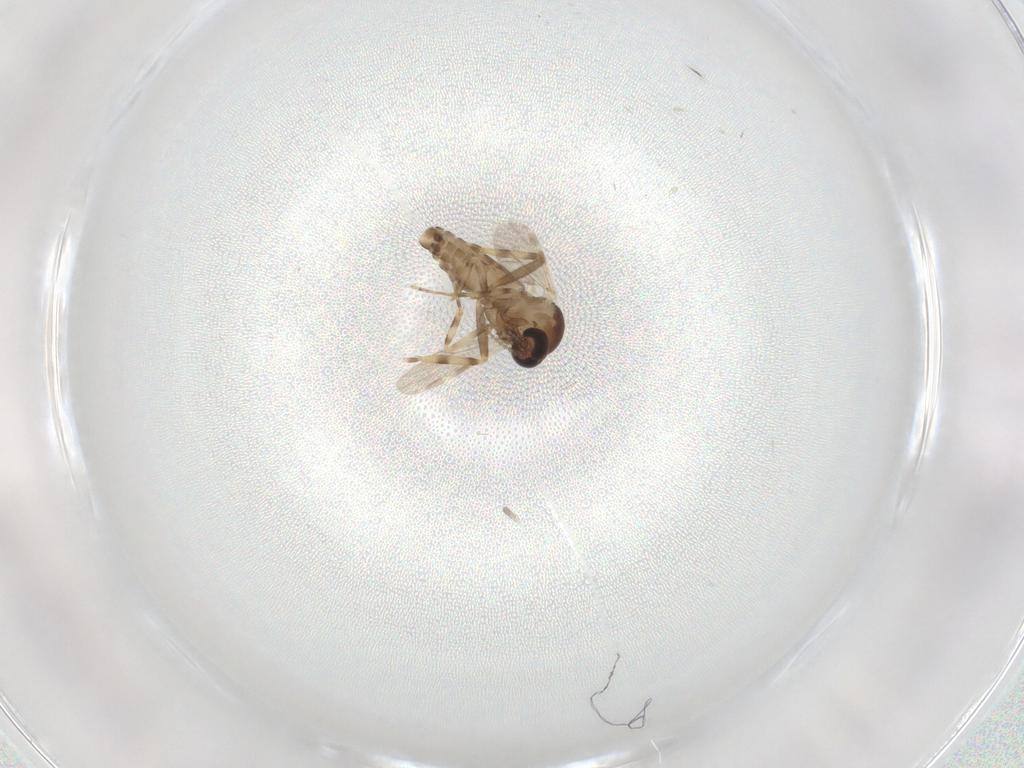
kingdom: Animalia
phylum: Arthropoda
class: Insecta
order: Diptera
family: Ceratopogonidae
